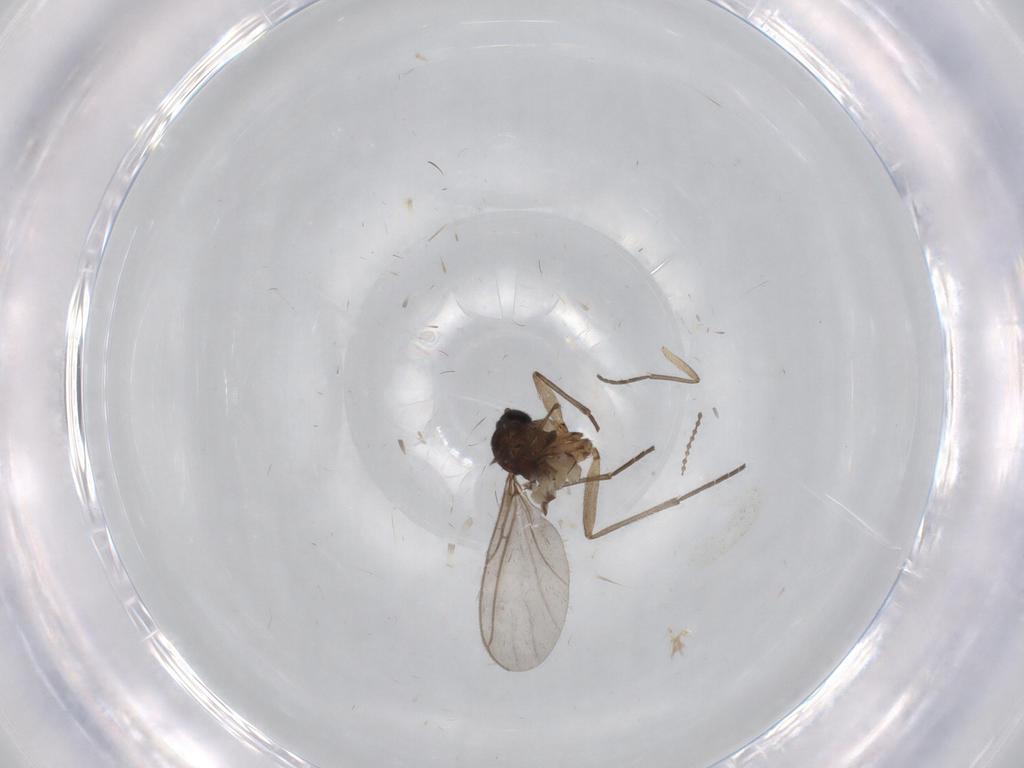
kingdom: Animalia
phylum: Arthropoda
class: Insecta
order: Diptera
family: Sciaridae
